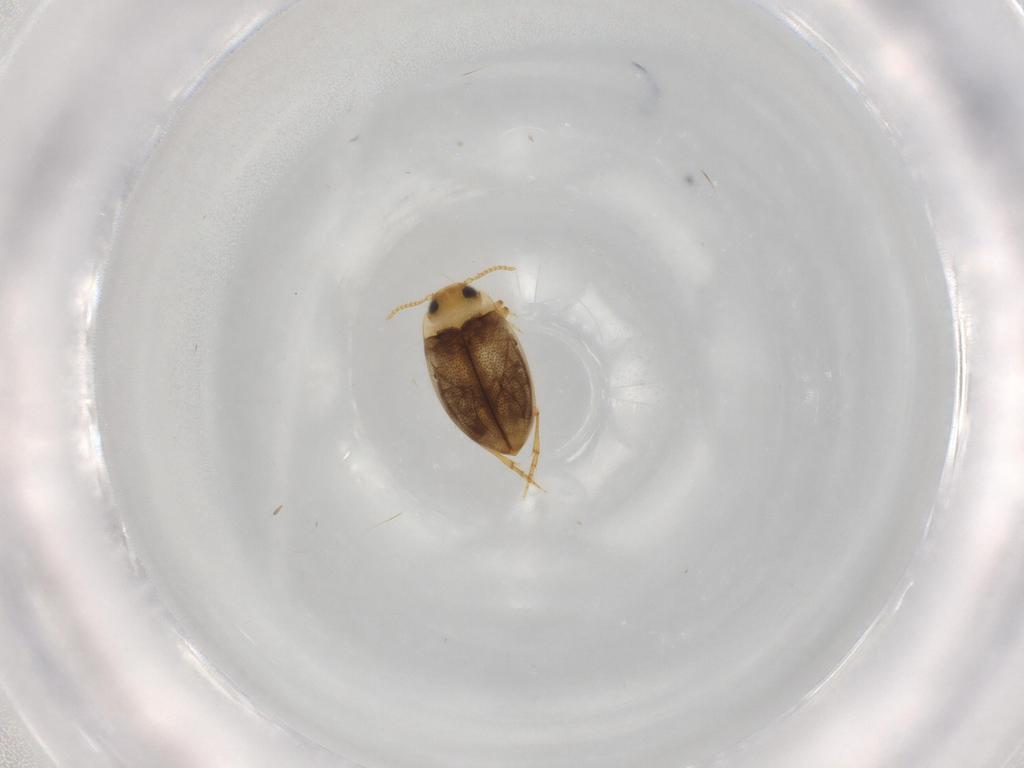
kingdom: Animalia
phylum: Arthropoda
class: Insecta
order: Coleoptera
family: Dytiscidae
